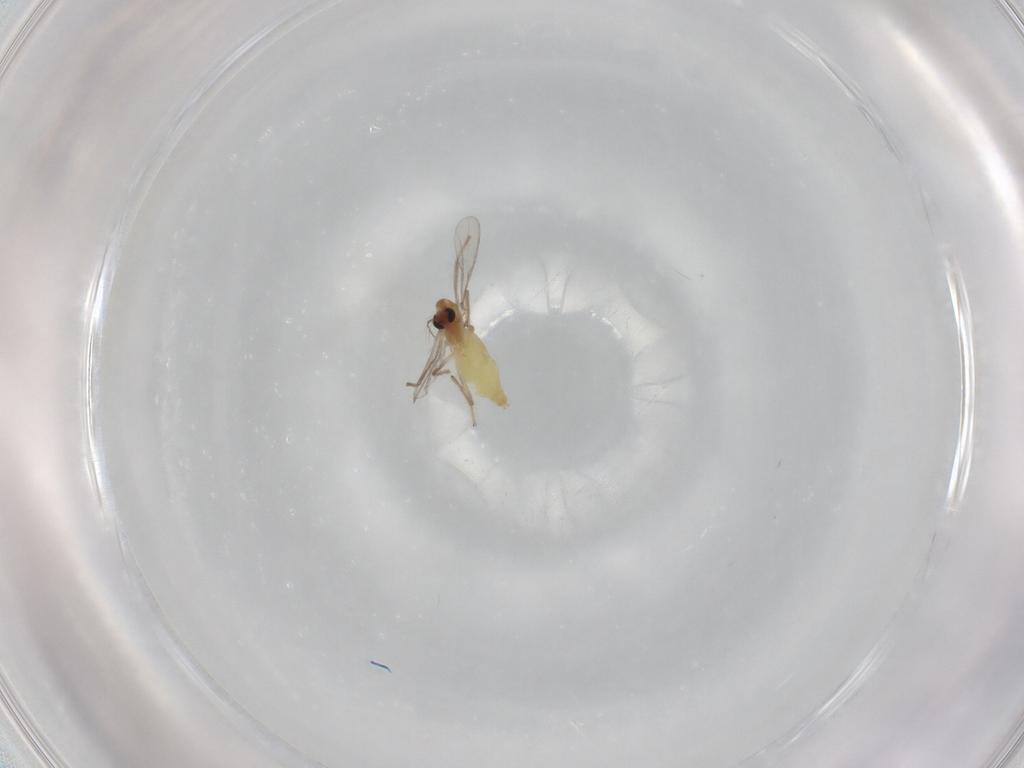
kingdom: Animalia
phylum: Arthropoda
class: Insecta
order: Diptera
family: Chironomidae
